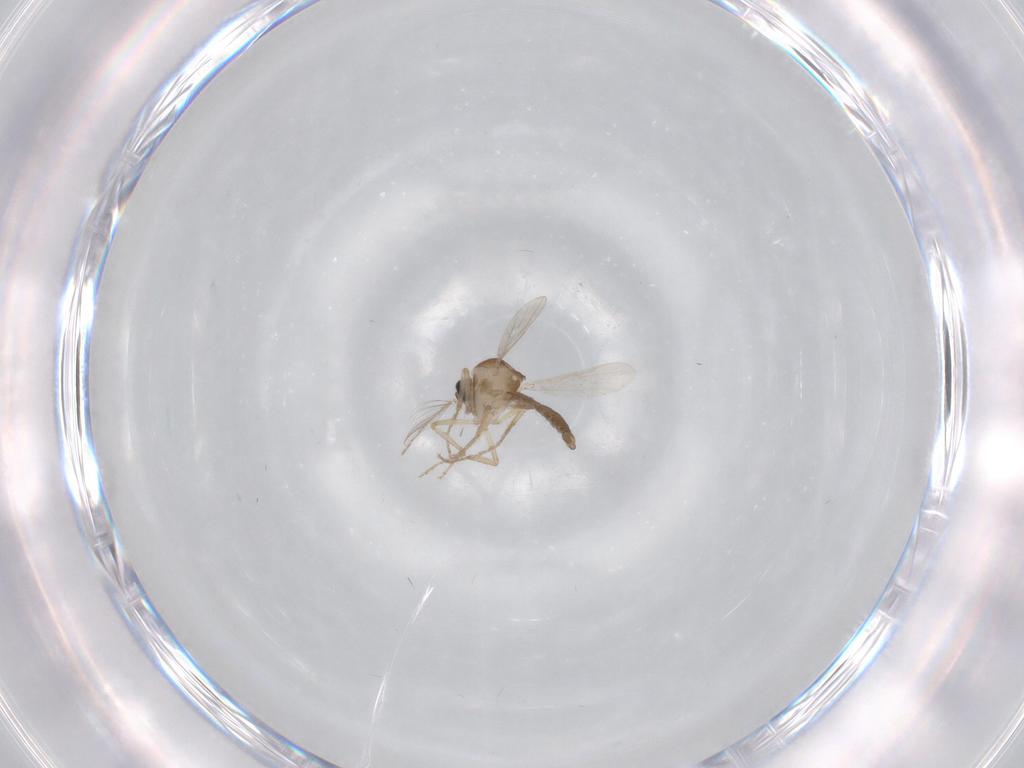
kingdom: Animalia
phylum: Arthropoda
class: Insecta
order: Diptera
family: Ceratopogonidae
